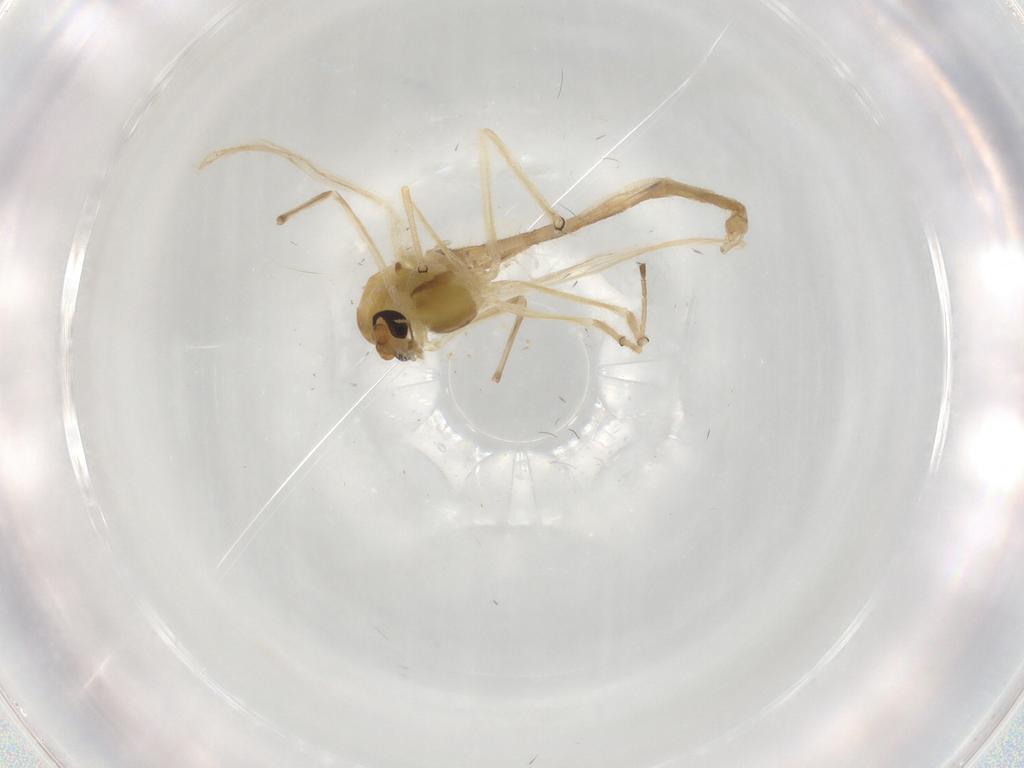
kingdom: Animalia
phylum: Arthropoda
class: Insecta
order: Diptera
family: Chironomidae
